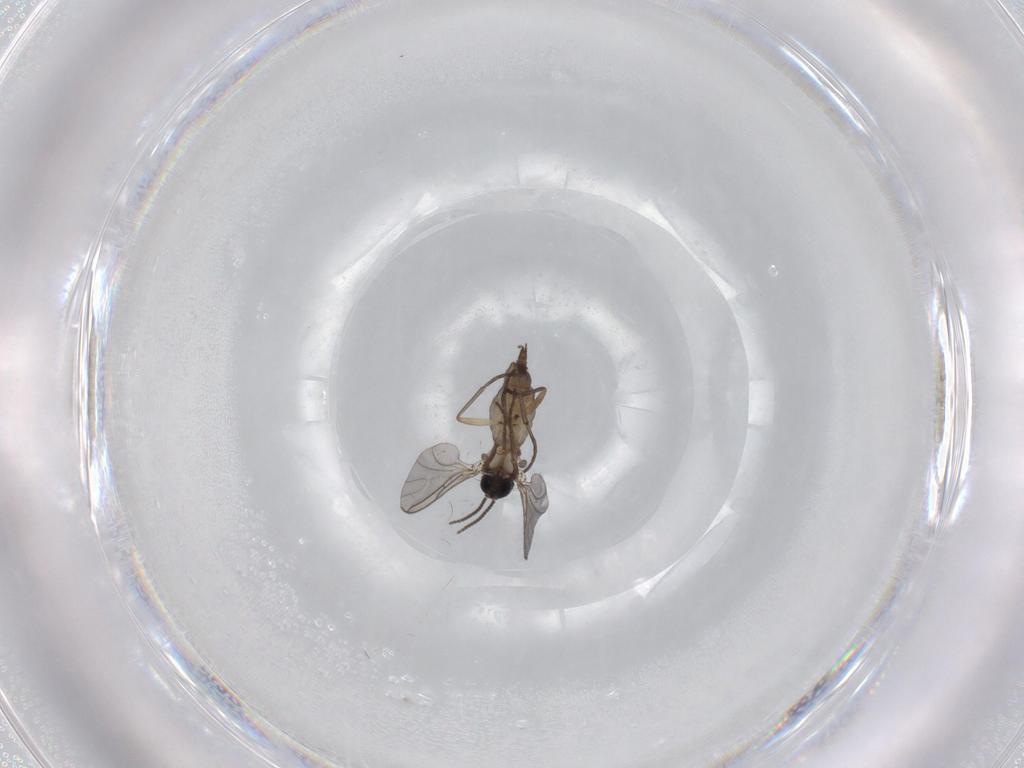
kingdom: Animalia
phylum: Arthropoda
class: Insecta
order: Diptera
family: Sciaridae
